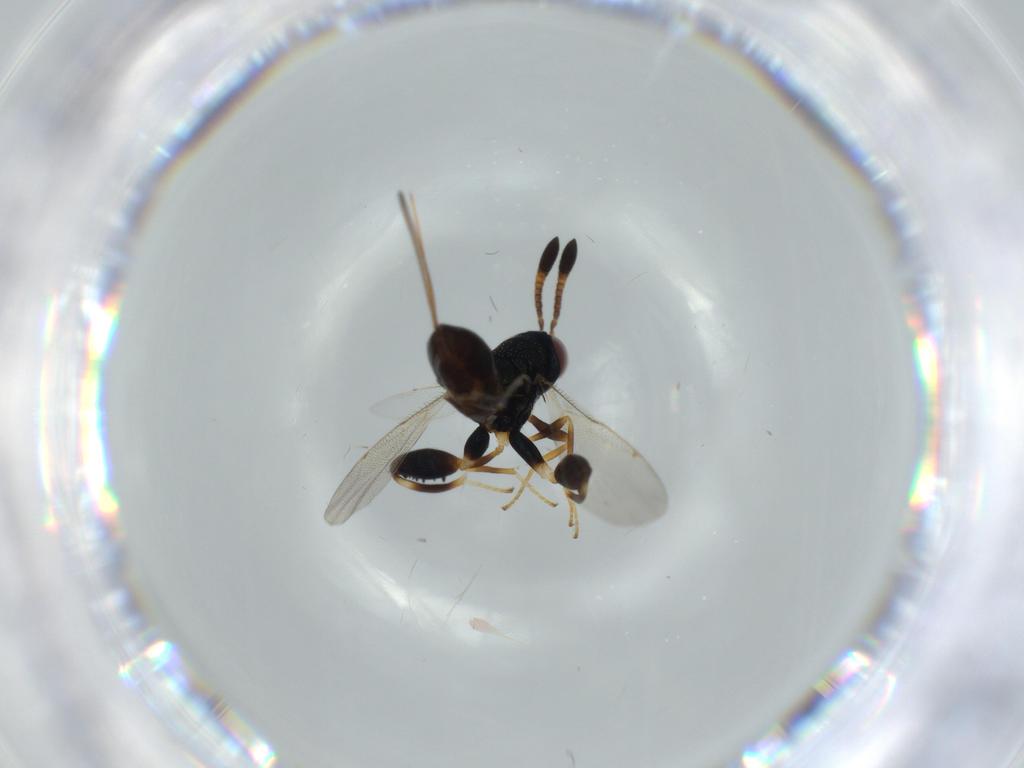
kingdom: Animalia
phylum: Arthropoda
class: Insecta
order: Hymenoptera
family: Torymidae
